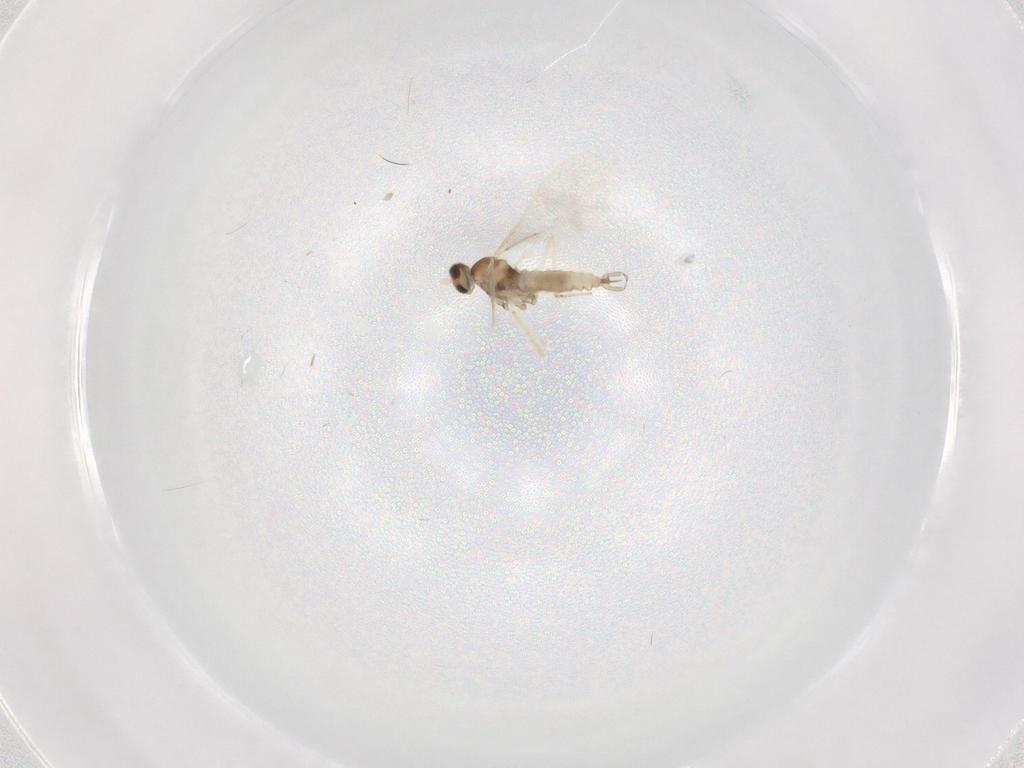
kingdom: Animalia
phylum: Arthropoda
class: Insecta
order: Diptera
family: Cecidomyiidae
